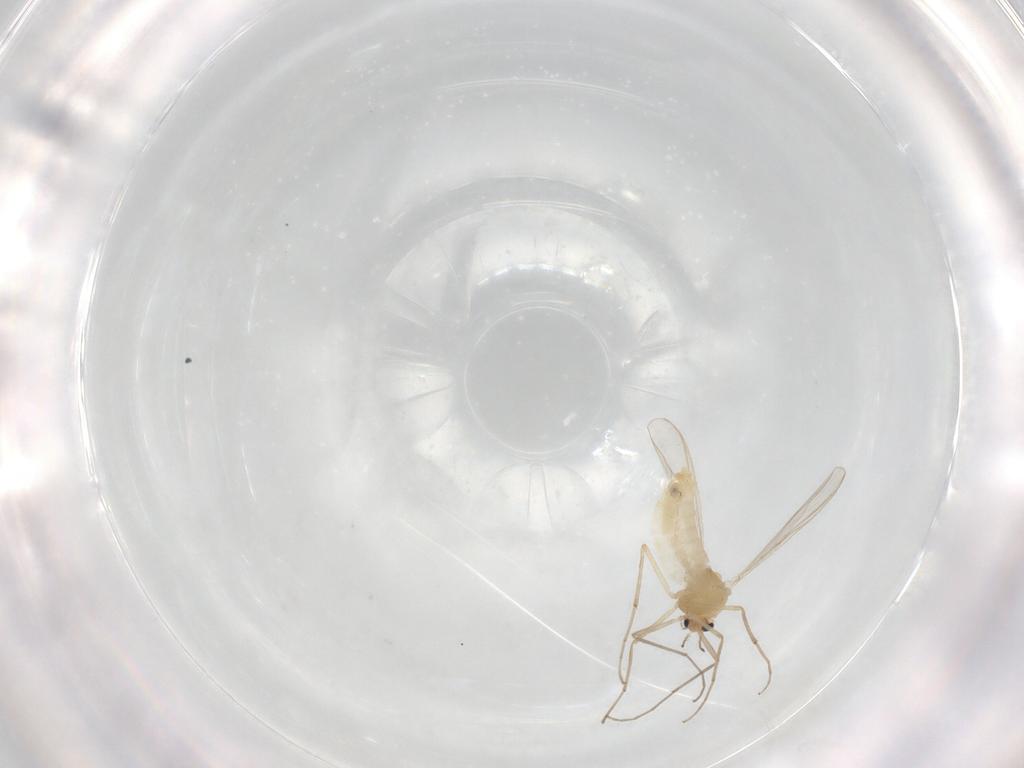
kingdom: Animalia
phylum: Arthropoda
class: Insecta
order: Diptera
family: Chironomidae
